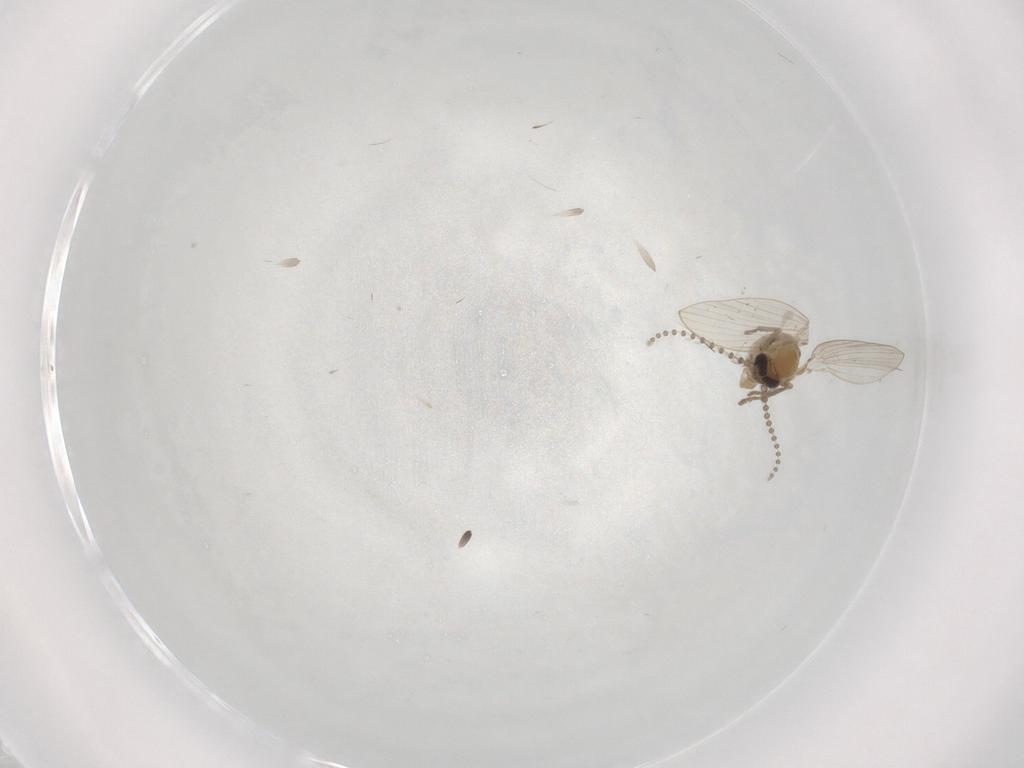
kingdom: Animalia
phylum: Arthropoda
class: Insecta
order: Diptera
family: Psychodidae
